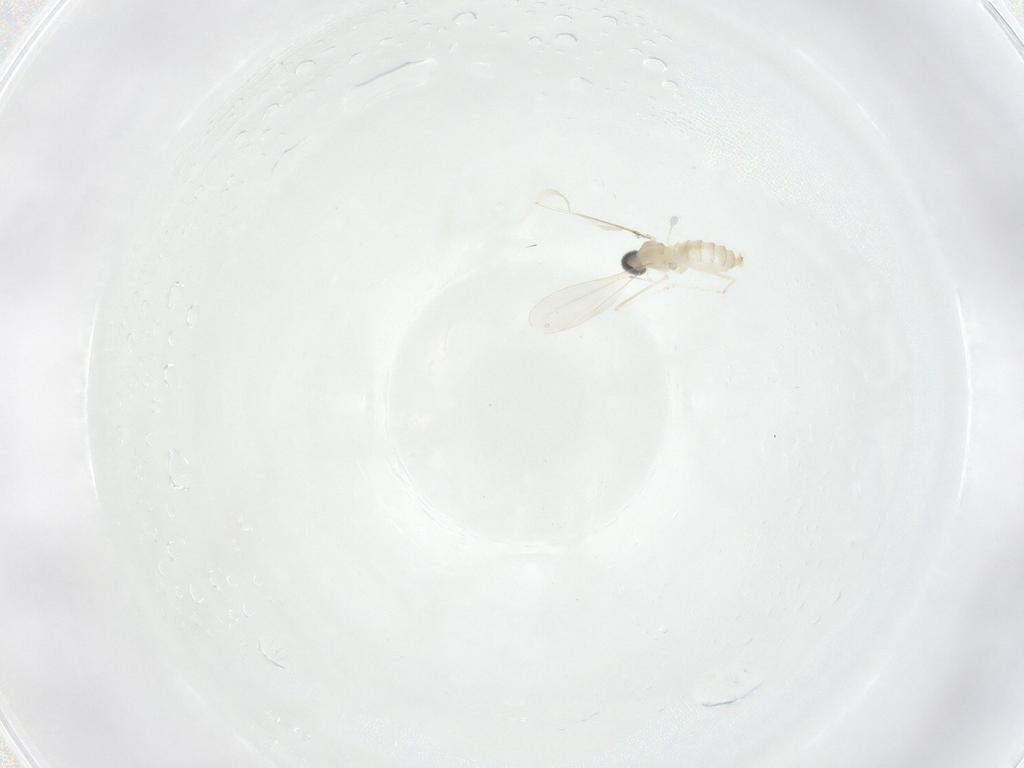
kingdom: Animalia
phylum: Arthropoda
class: Insecta
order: Diptera
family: Cecidomyiidae
